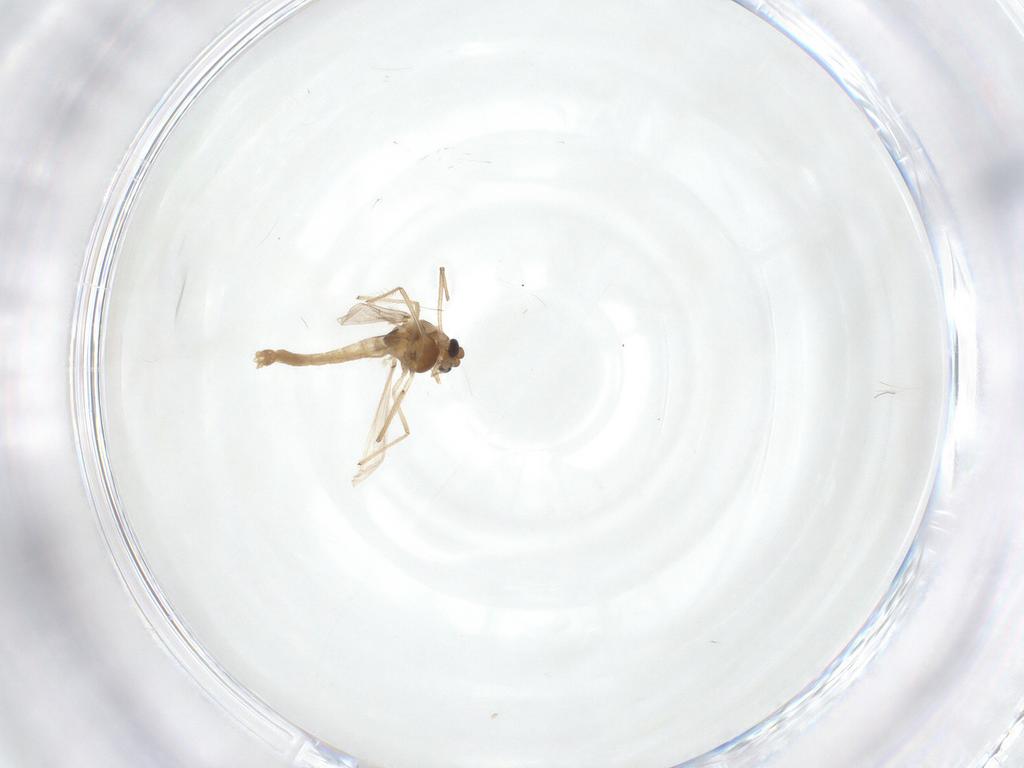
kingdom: Animalia
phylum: Arthropoda
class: Insecta
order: Diptera
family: Chironomidae
